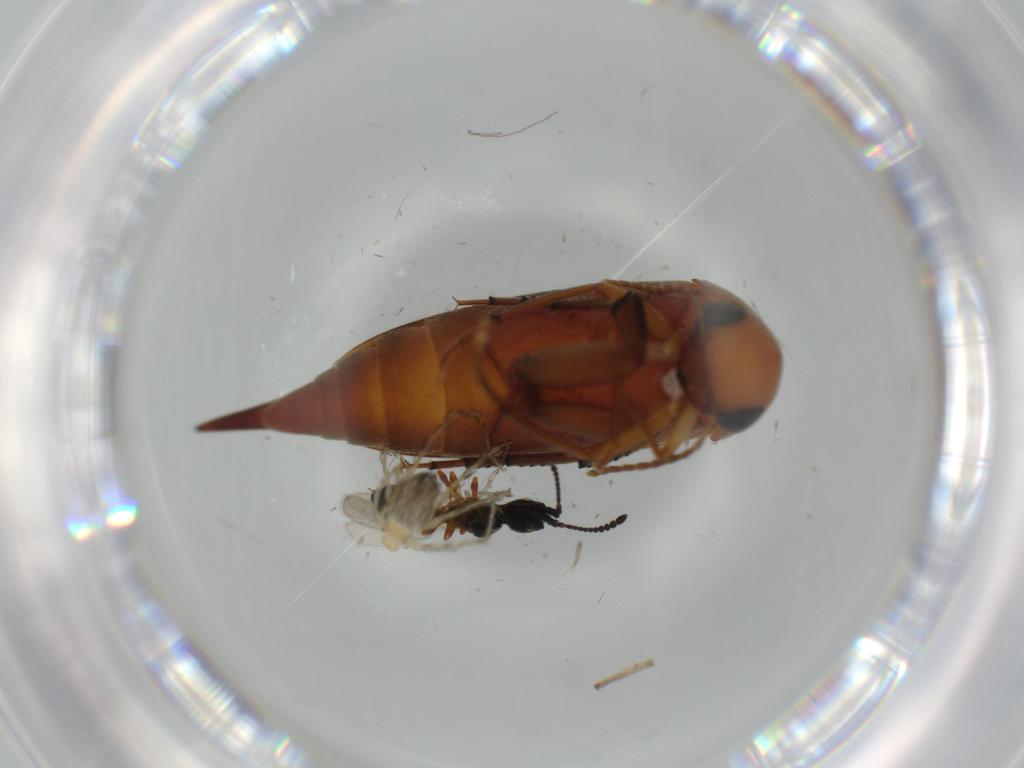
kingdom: Animalia
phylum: Arthropoda
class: Insecta
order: Coleoptera
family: Mordellidae
